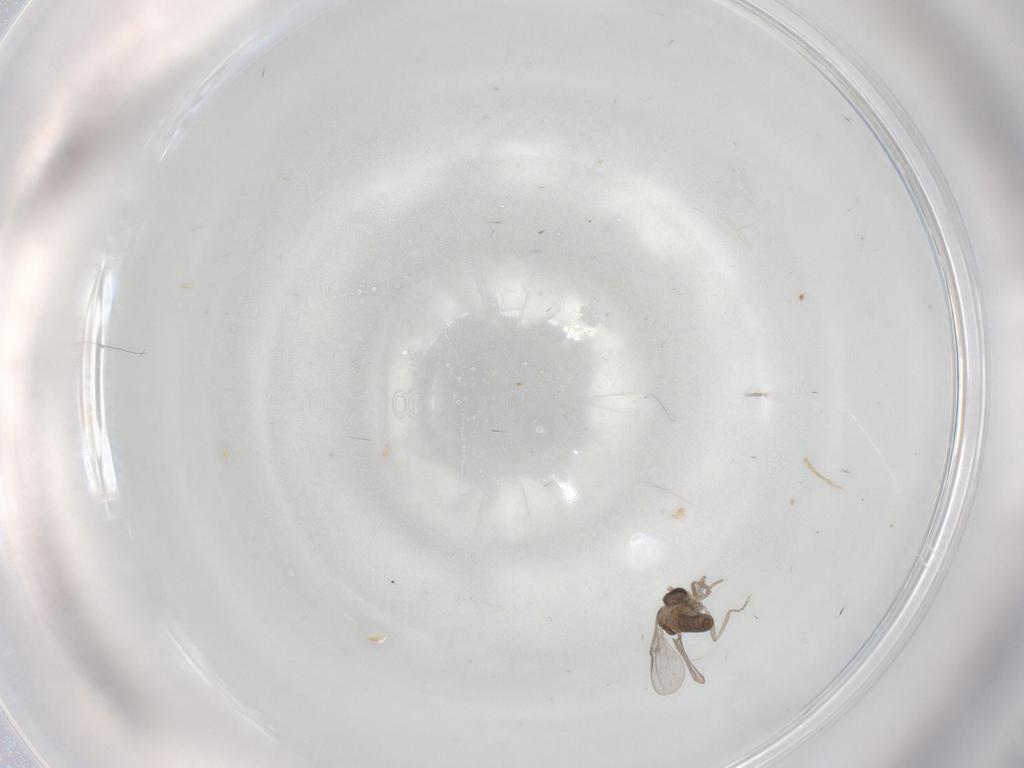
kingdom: Animalia
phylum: Arthropoda
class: Insecta
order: Diptera
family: Cecidomyiidae
